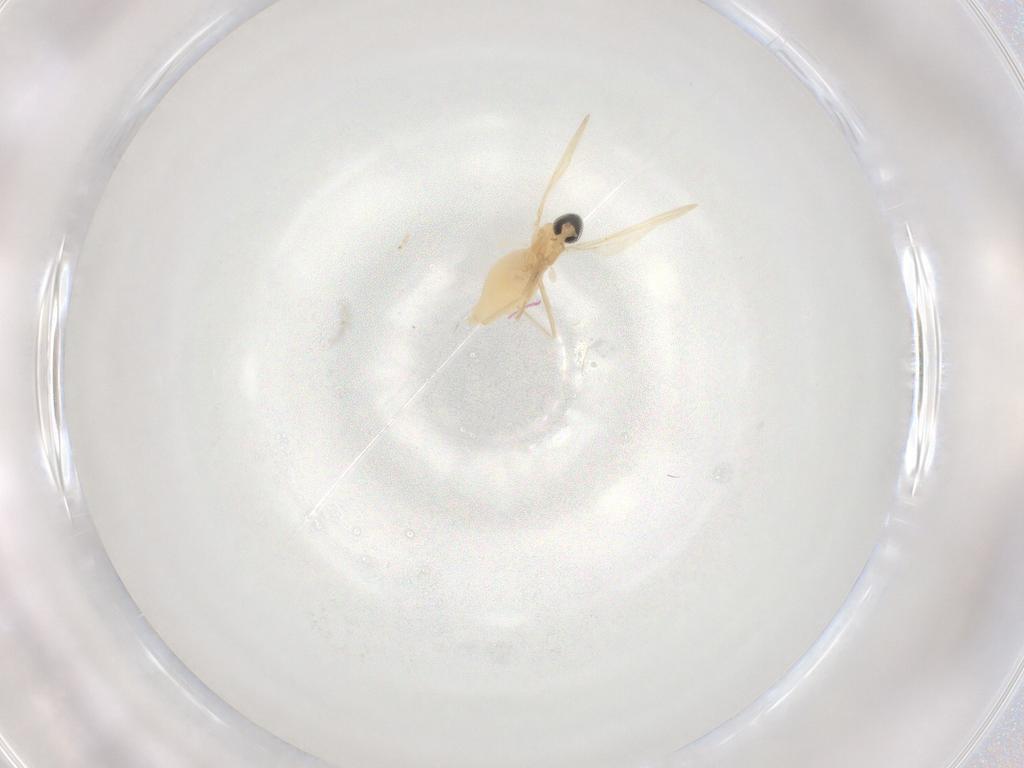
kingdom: Animalia
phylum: Arthropoda
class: Insecta
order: Diptera
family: Cecidomyiidae
